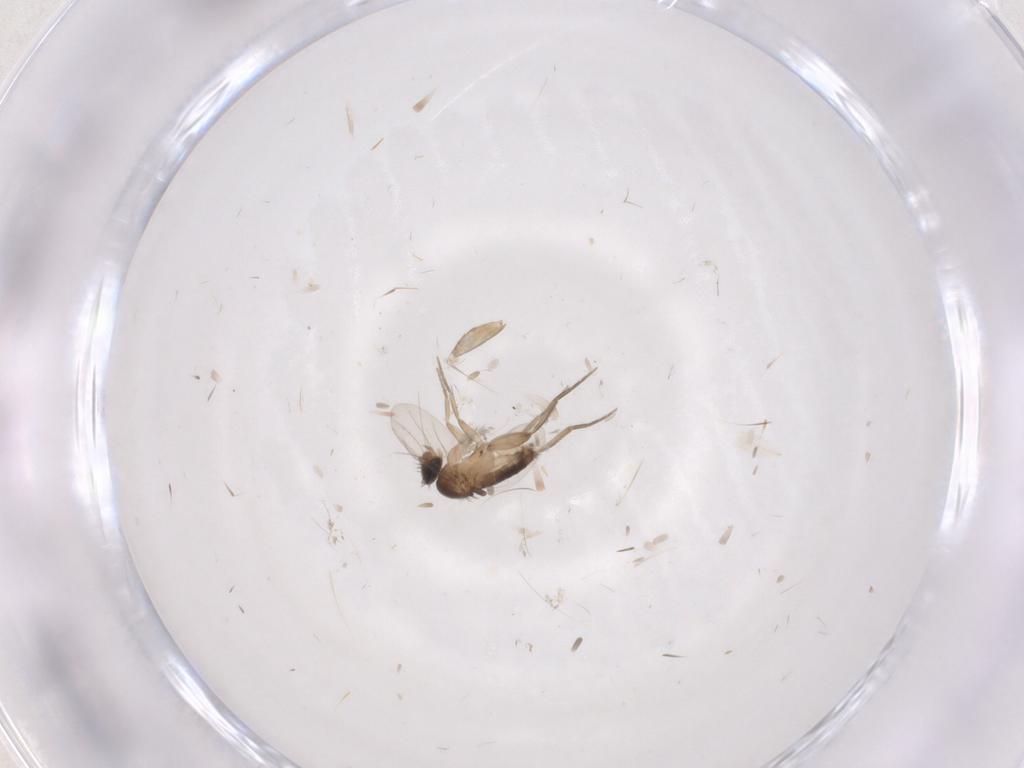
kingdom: Animalia
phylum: Arthropoda
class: Insecta
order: Diptera
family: Phoridae
